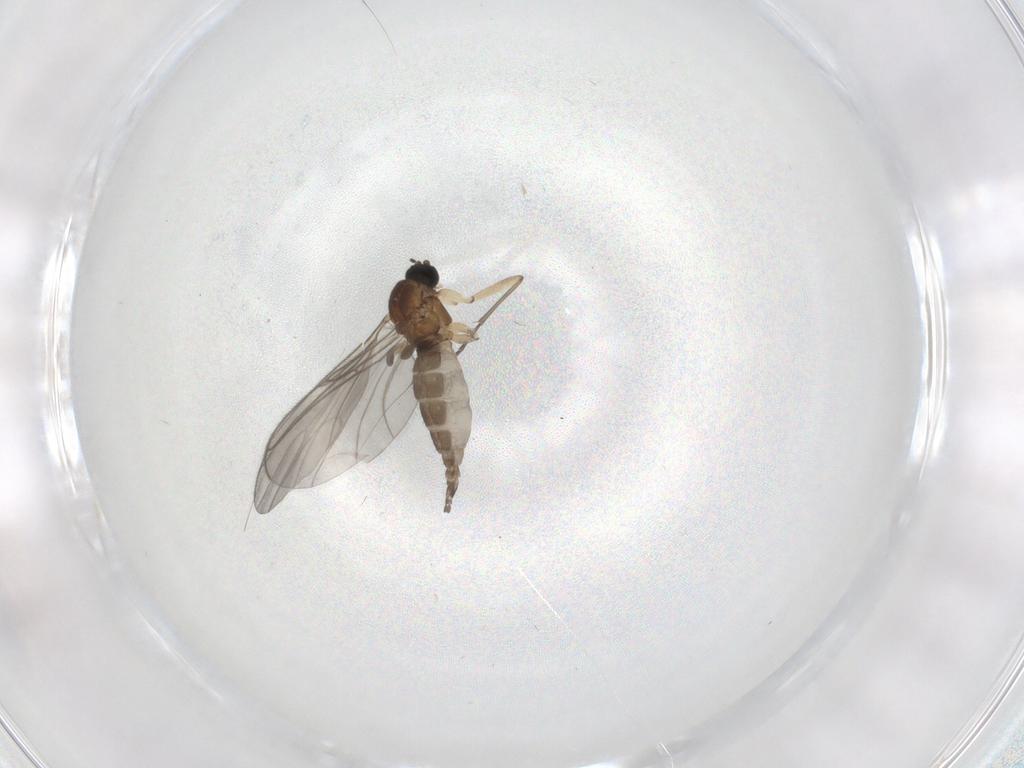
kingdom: Animalia
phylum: Arthropoda
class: Insecta
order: Diptera
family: Sciaridae
